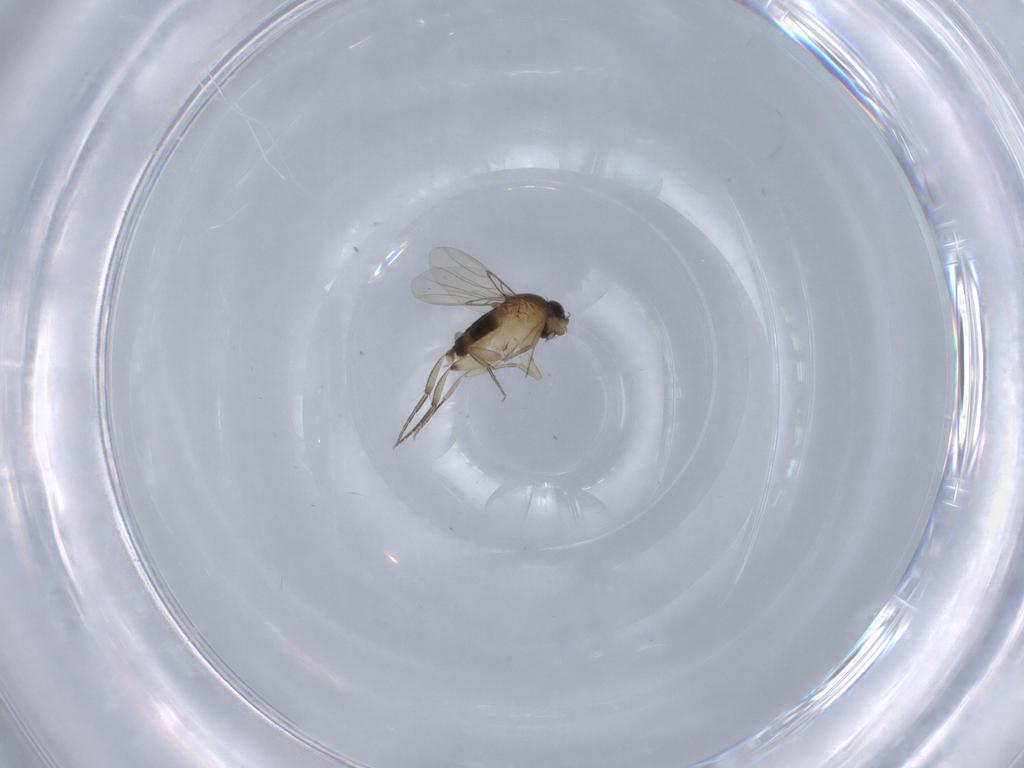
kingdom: Animalia
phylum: Arthropoda
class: Insecta
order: Diptera
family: Phoridae
